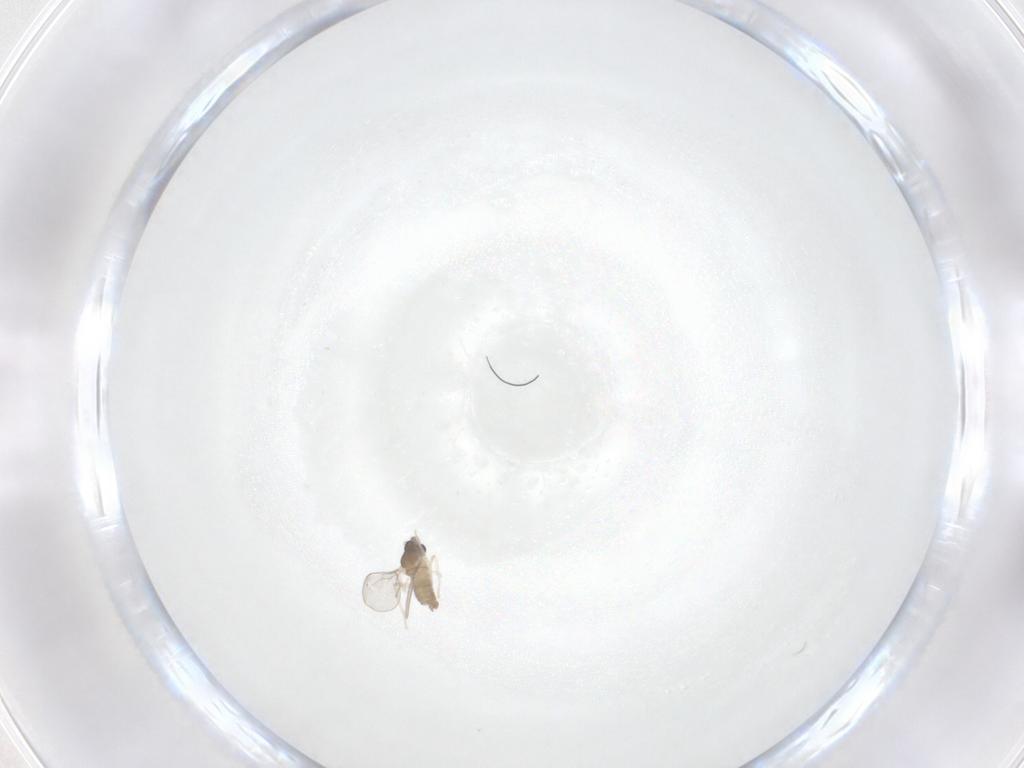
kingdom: Animalia
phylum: Arthropoda
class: Insecta
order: Diptera
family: Cecidomyiidae
